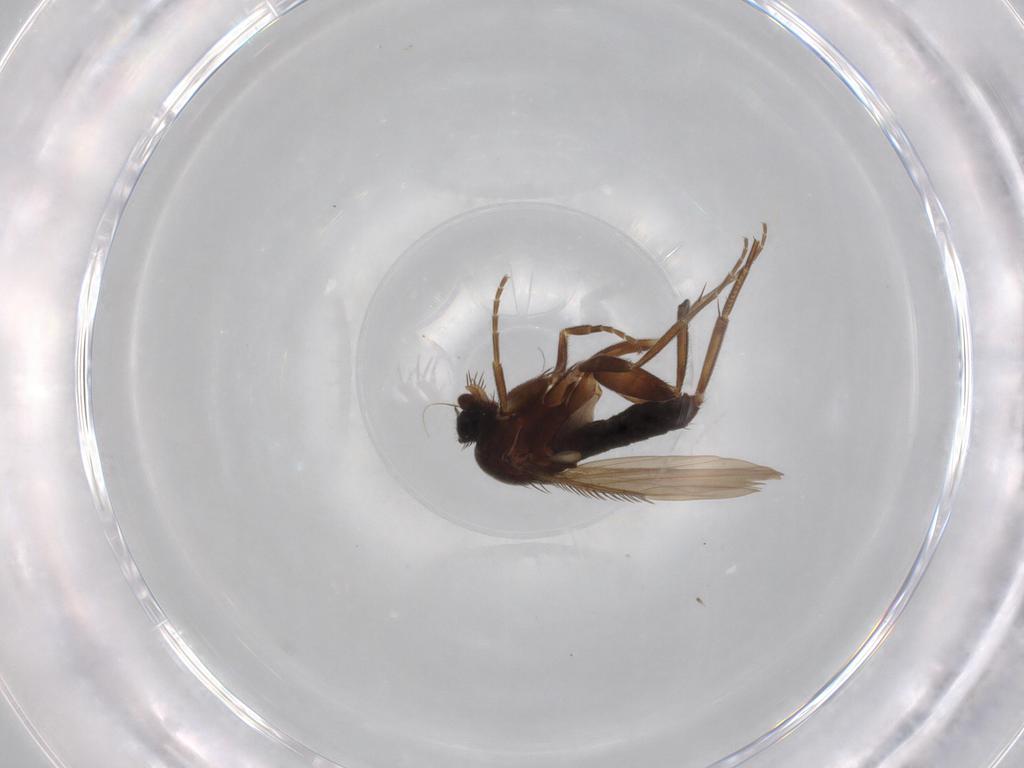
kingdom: Animalia
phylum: Arthropoda
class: Insecta
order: Diptera
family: Phoridae
